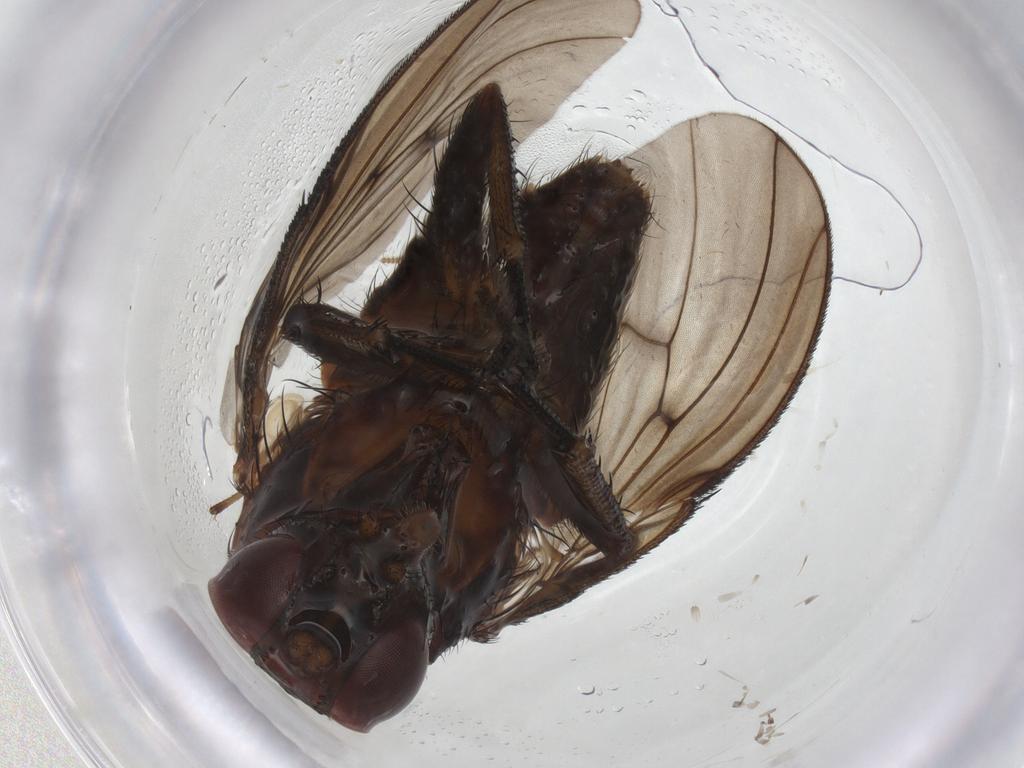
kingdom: Animalia
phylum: Arthropoda
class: Insecta
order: Diptera
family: Muscidae
